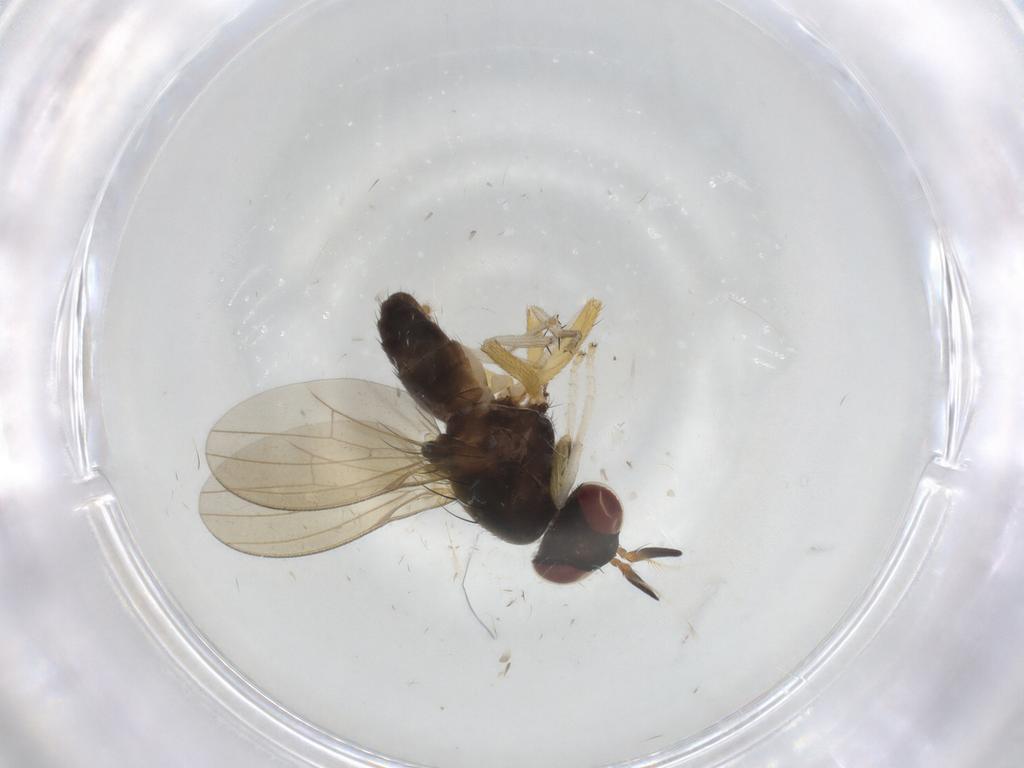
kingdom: Animalia
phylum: Arthropoda
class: Insecta
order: Diptera
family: Lauxaniidae
